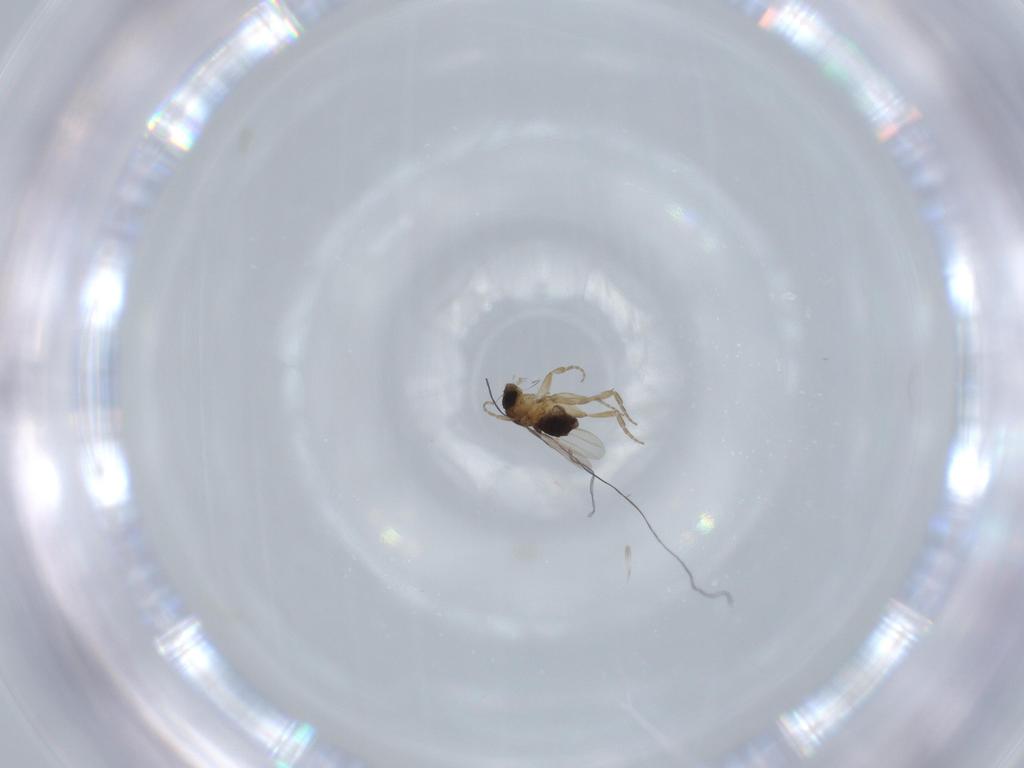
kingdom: Animalia
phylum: Arthropoda
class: Insecta
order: Diptera
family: Phoridae
